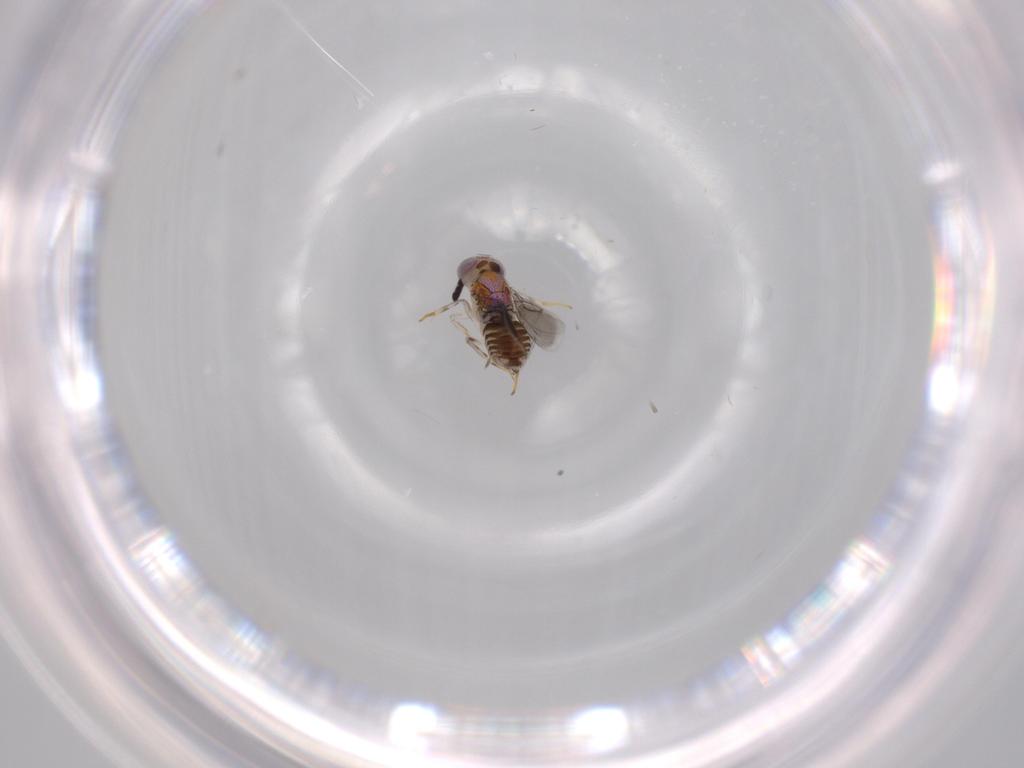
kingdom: Animalia
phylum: Arthropoda
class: Insecta
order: Hymenoptera
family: Vespidae
